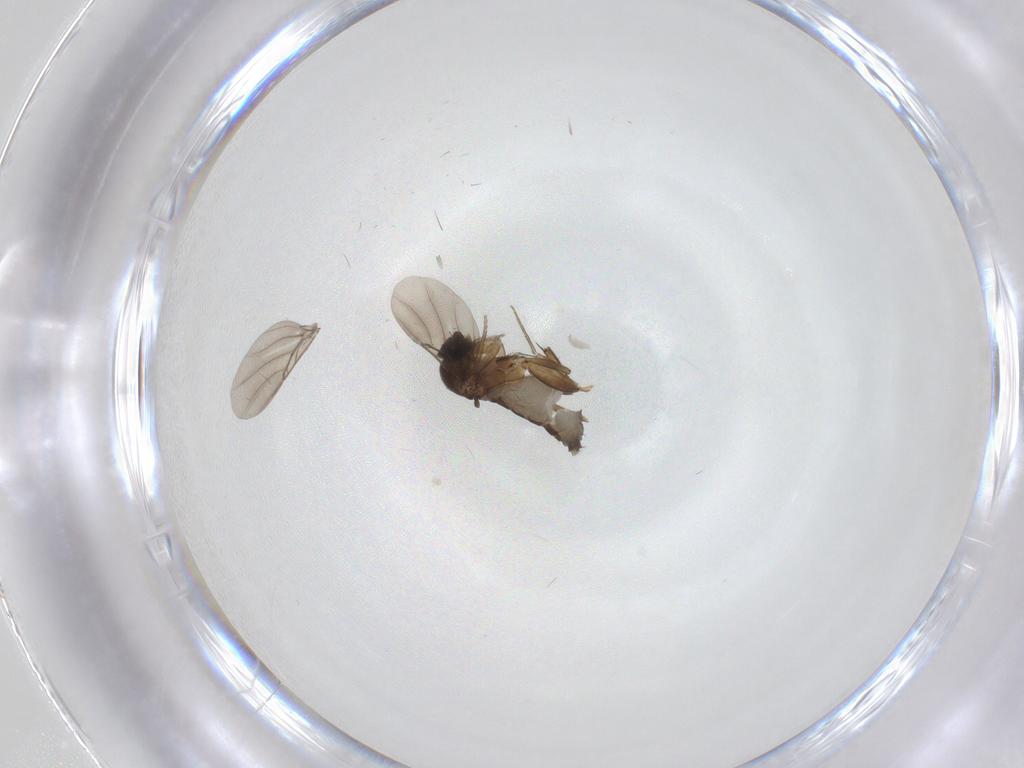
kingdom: Animalia
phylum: Arthropoda
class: Insecta
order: Diptera
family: Phoridae
